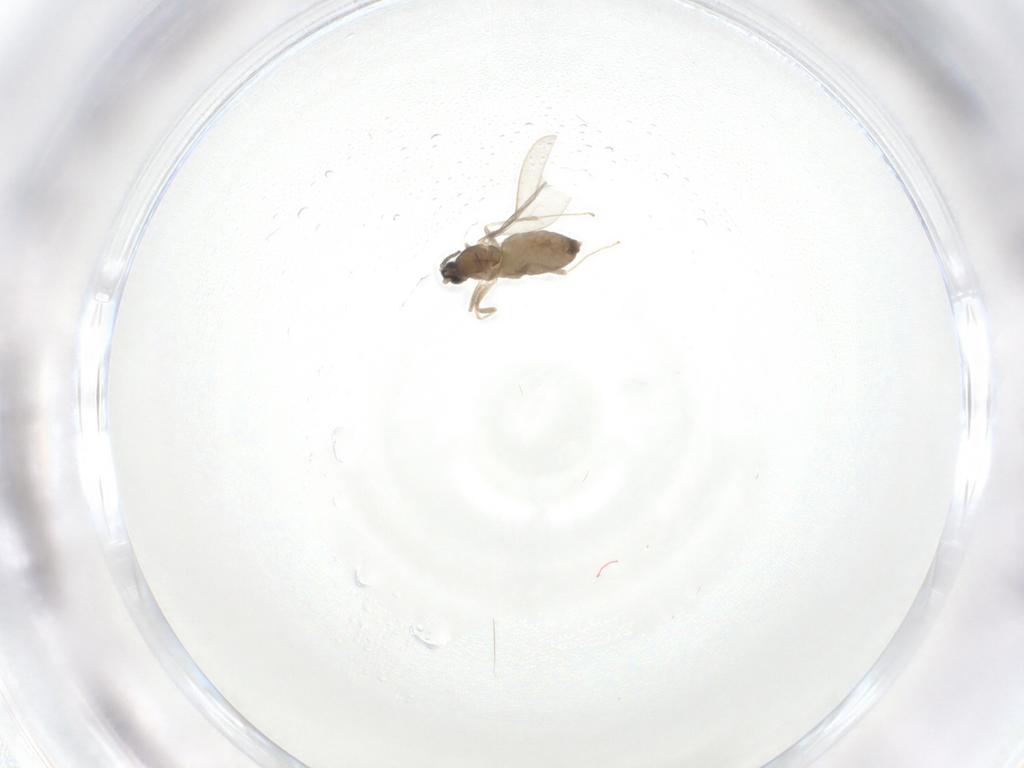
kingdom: Animalia
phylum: Arthropoda
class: Insecta
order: Diptera
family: Cecidomyiidae
